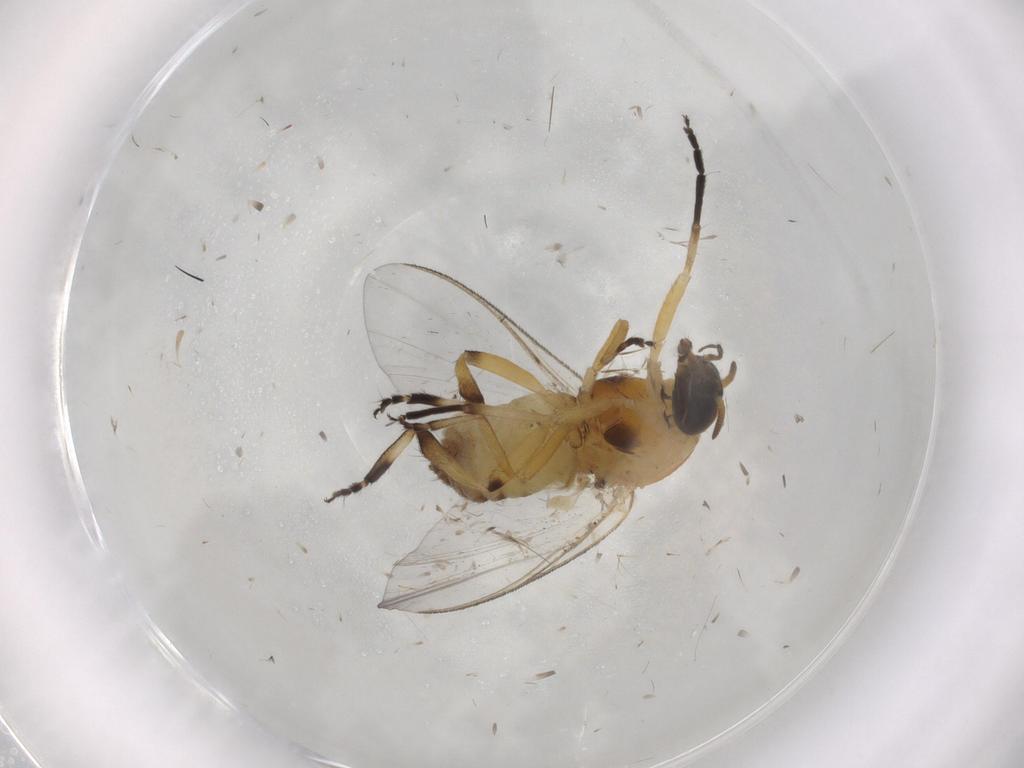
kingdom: Animalia
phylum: Arthropoda
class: Insecta
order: Diptera
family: Simuliidae
